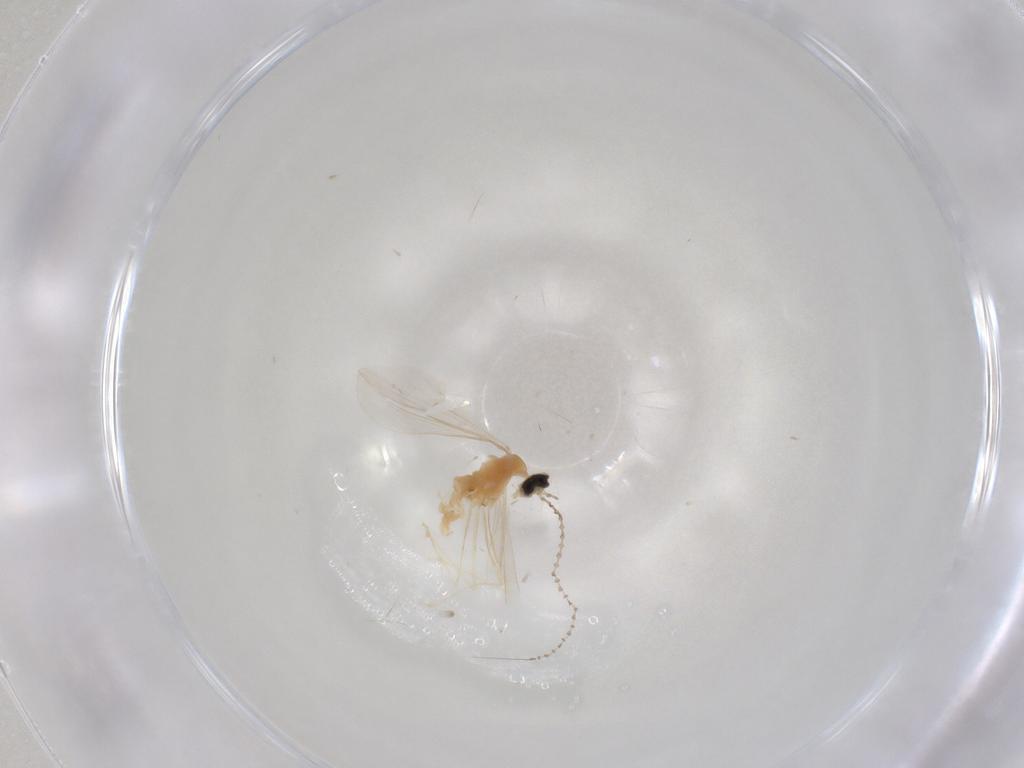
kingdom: Animalia
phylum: Arthropoda
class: Insecta
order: Diptera
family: Cecidomyiidae
